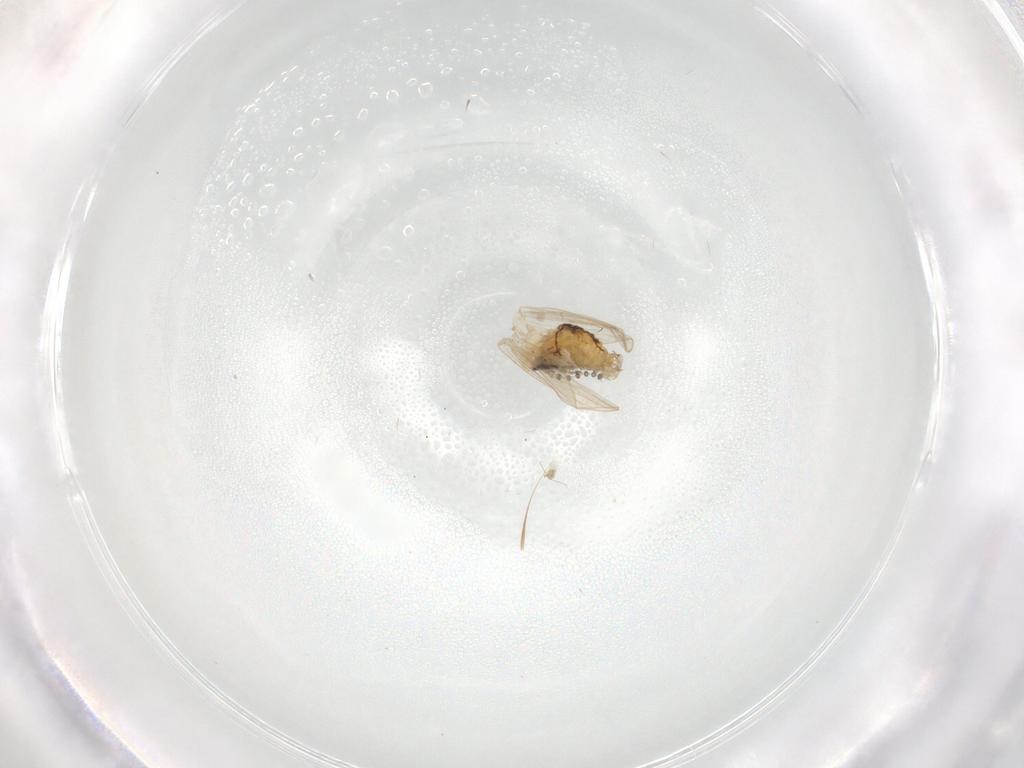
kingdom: Animalia
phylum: Arthropoda
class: Insecta
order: Diptera
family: Psychodidae
